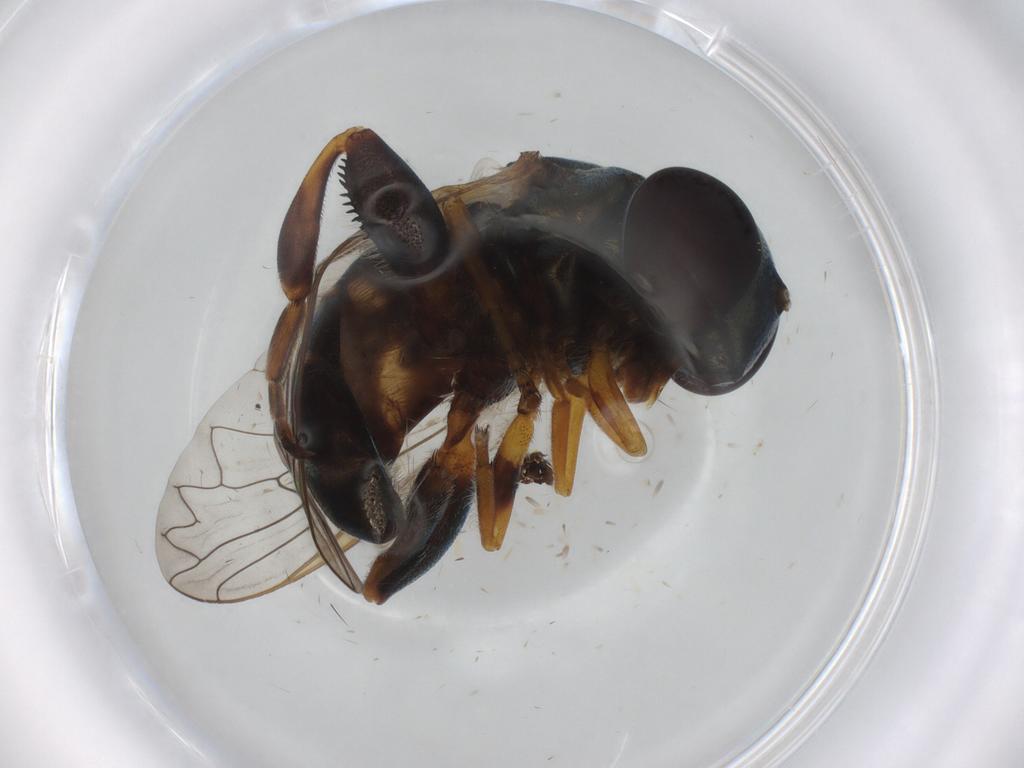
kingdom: Animalia
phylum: Arthropoda
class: Insecta
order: Diptera
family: Syrphidae
